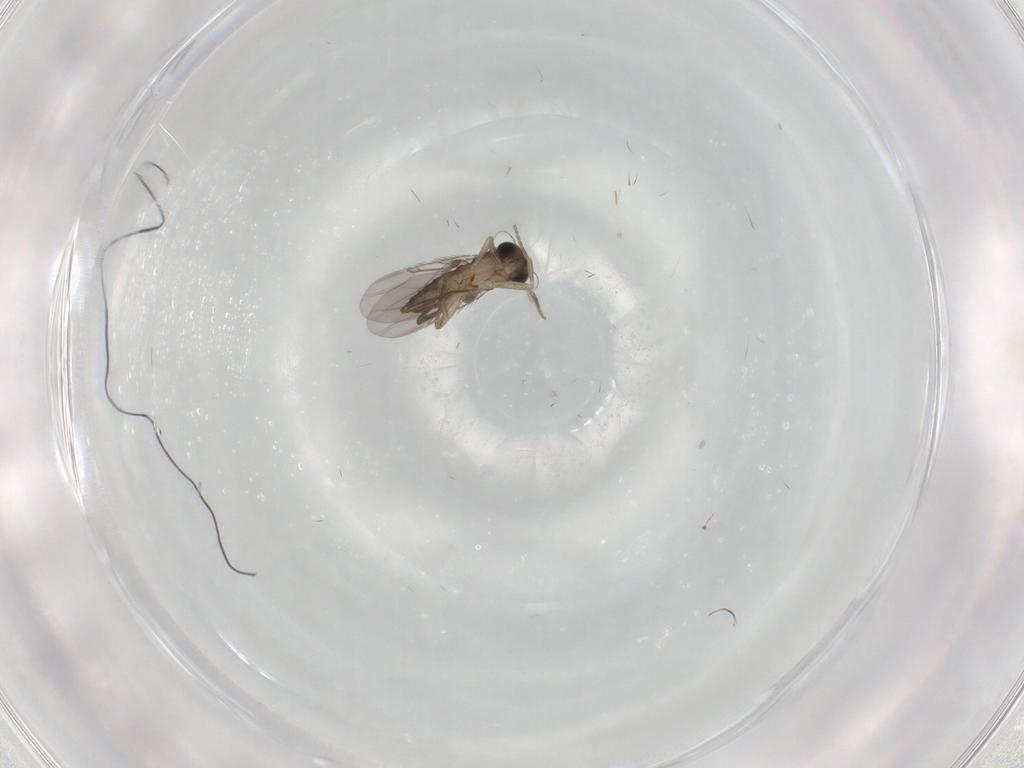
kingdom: Animalia
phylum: Arthropoda
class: Insecta
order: Diptera
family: Phoridae
